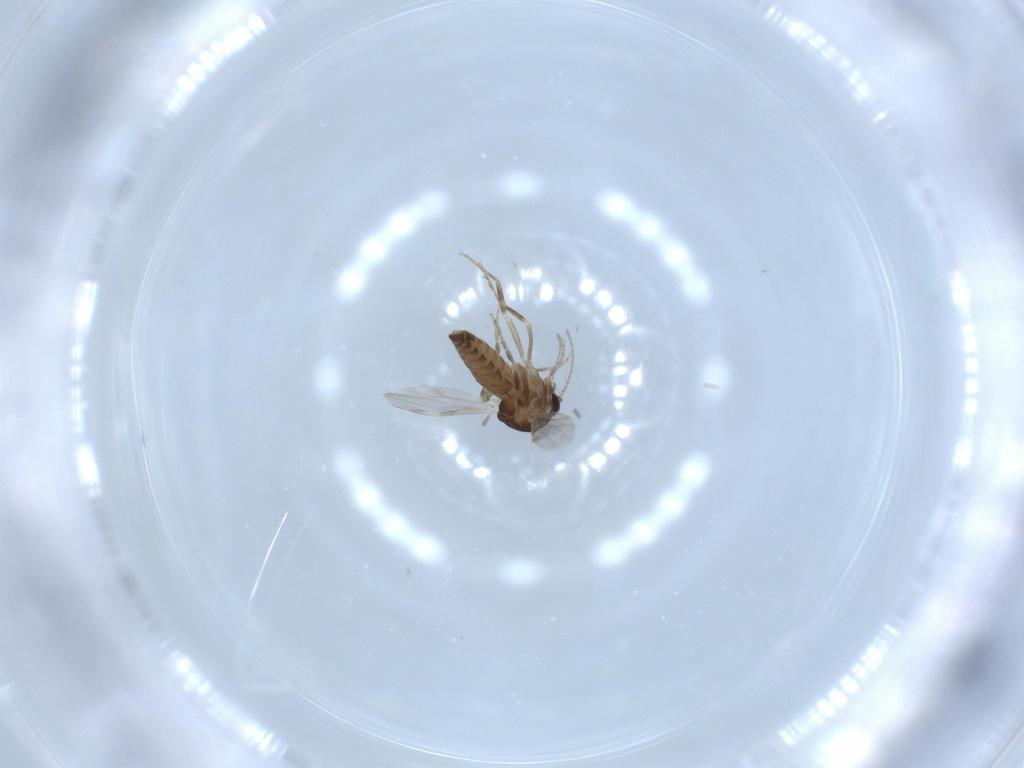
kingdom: Animalia
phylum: Arthropoda
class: Insecta
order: Diptera
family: Ceratopogonidae
